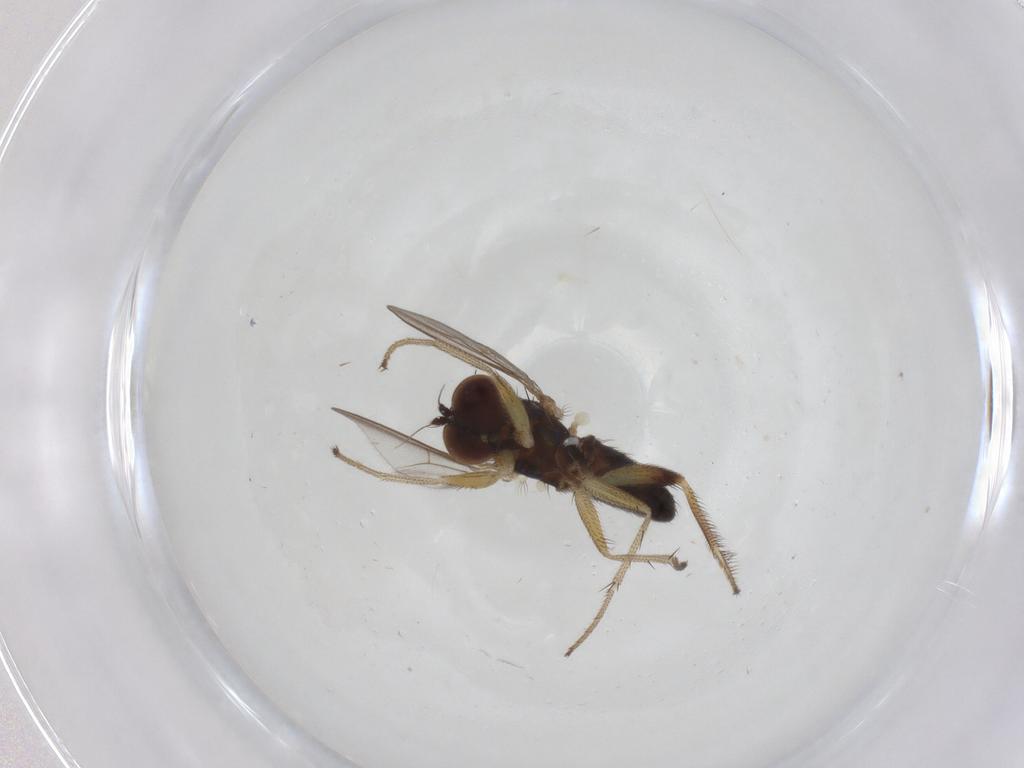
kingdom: Animalia
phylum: Arthropoda
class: Insecta
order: Diptera
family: Dolichopodidae
